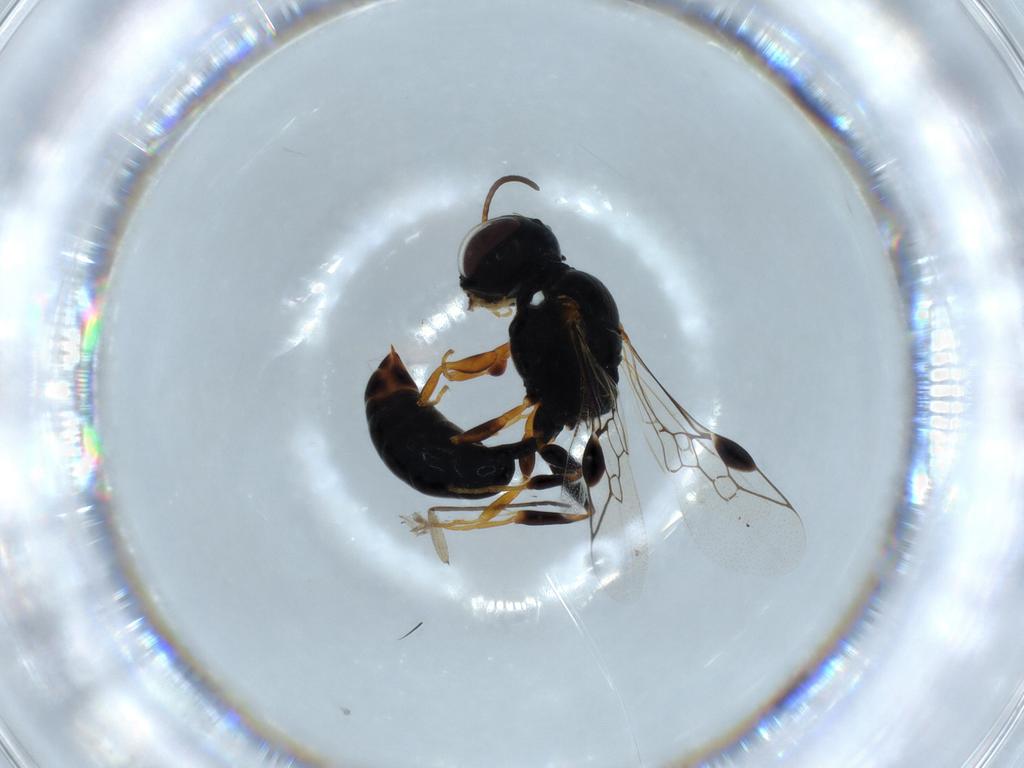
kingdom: Animalia
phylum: Arthropoda
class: Insecta
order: Hymenoptera
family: Pemphredonidae
